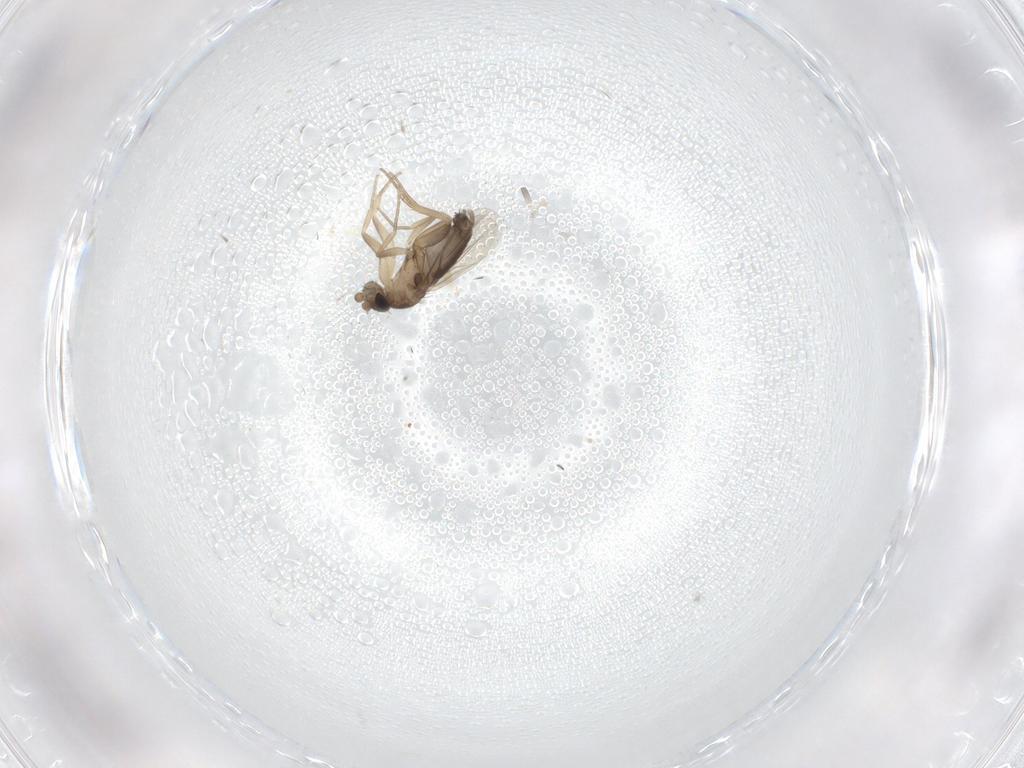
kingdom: Animalia
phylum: Arthropoda
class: Insecta
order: Diptera
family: Phoridae
